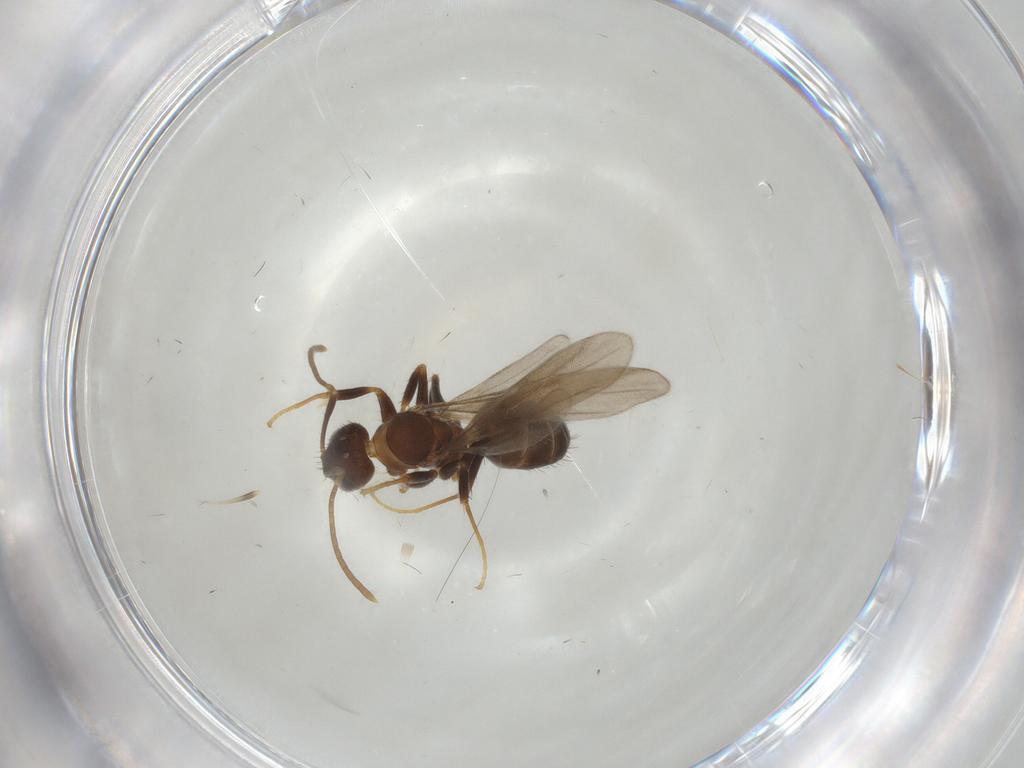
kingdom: Animalia
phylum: Arthropoda
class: Insecta
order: Hymenoptera
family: Formicidae
